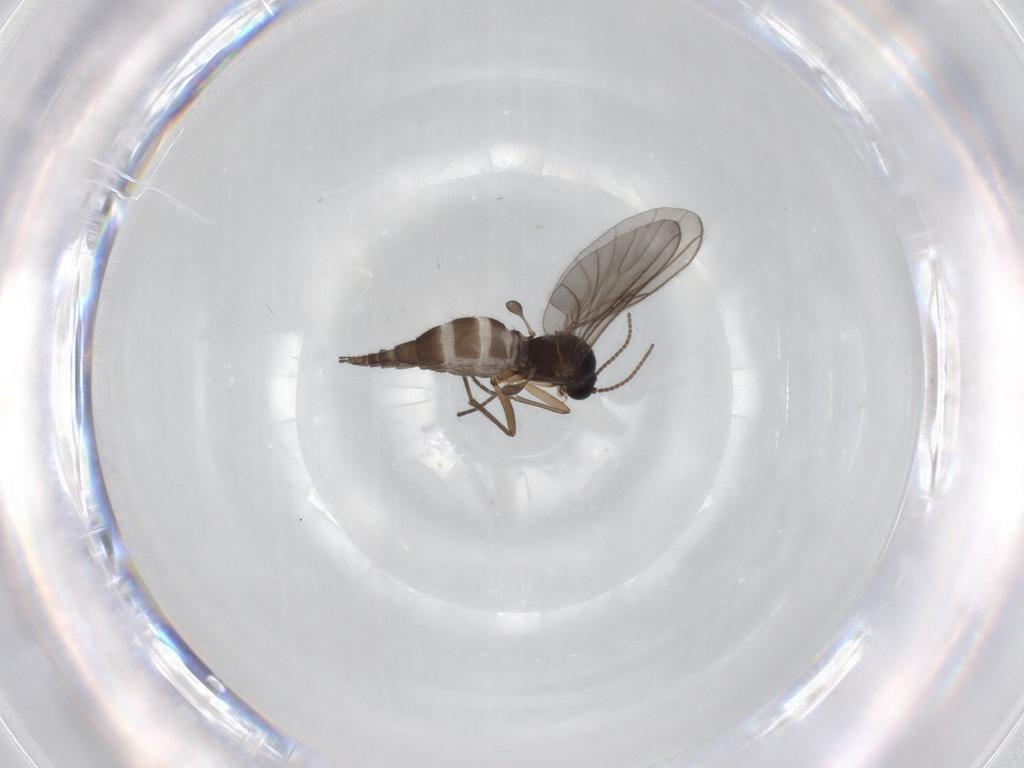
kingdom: Animalia
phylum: Arthropoda
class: Insecta
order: Diptera
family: Sciaridae
